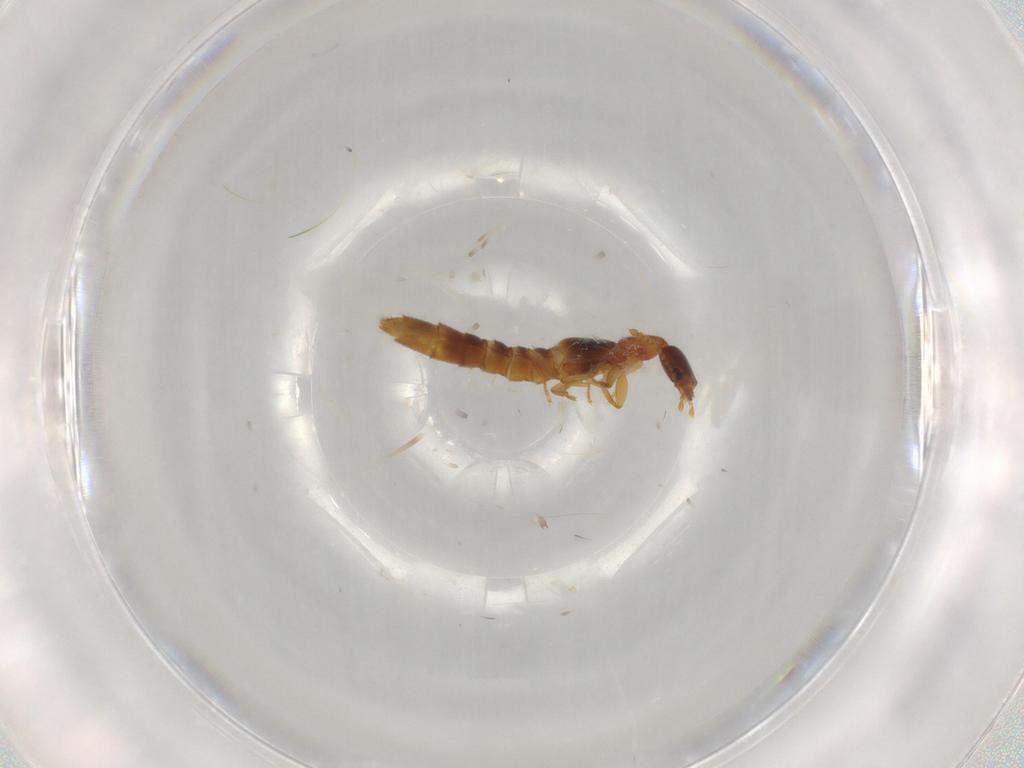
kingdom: Animalia
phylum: Arthropoda
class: Insecta
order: Coleoptera
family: Staphylinidae
